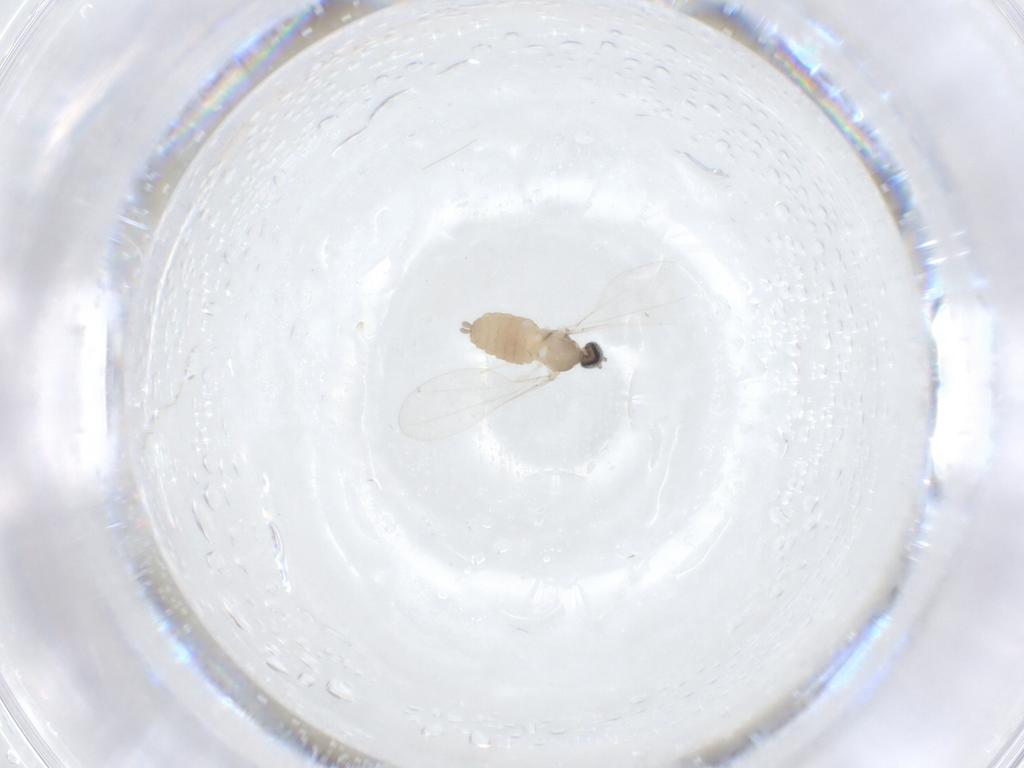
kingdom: Animalia
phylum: Arthropoda
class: Insecta
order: Diptera
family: Cecidomyiidae
